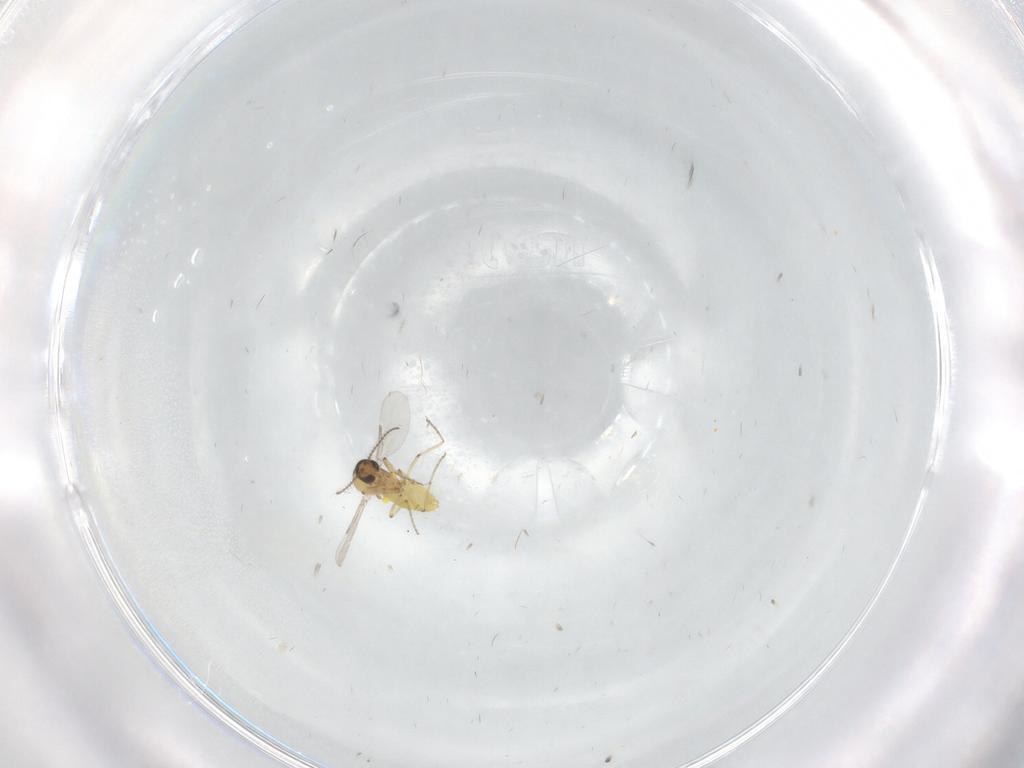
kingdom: Animalia
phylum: Arthropoda
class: Insecta
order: Diptera
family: Ceratopogonidae
